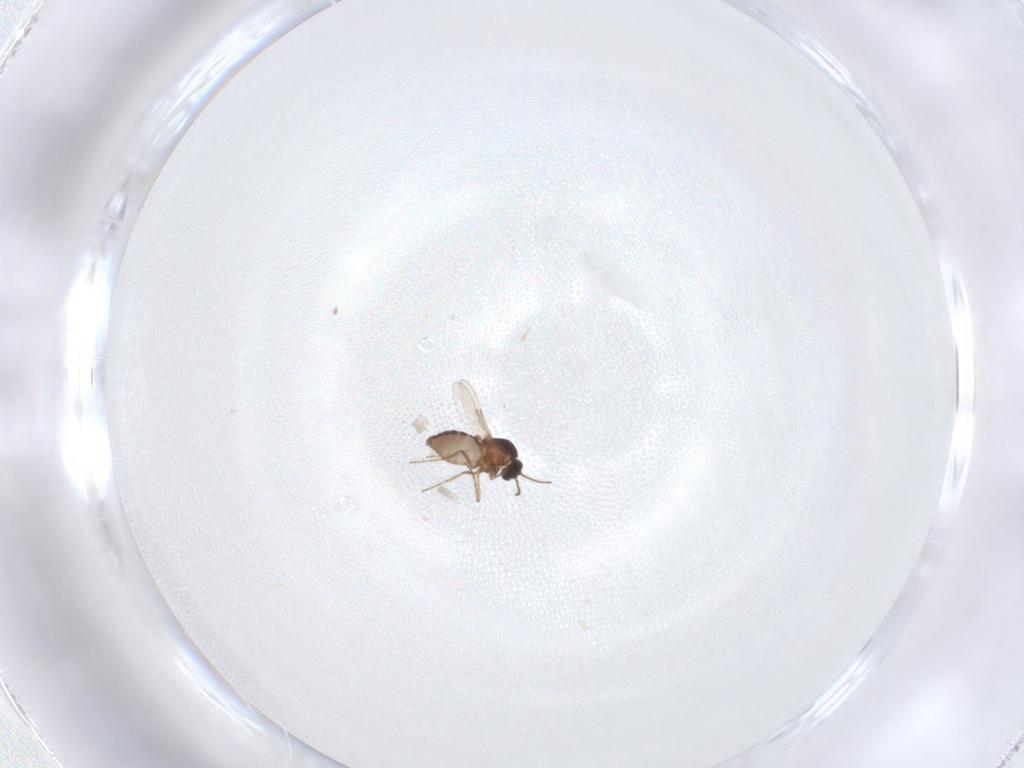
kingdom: Animalia
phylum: Arthropoda
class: Insecta
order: Diptera
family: Ceratopogonidae
